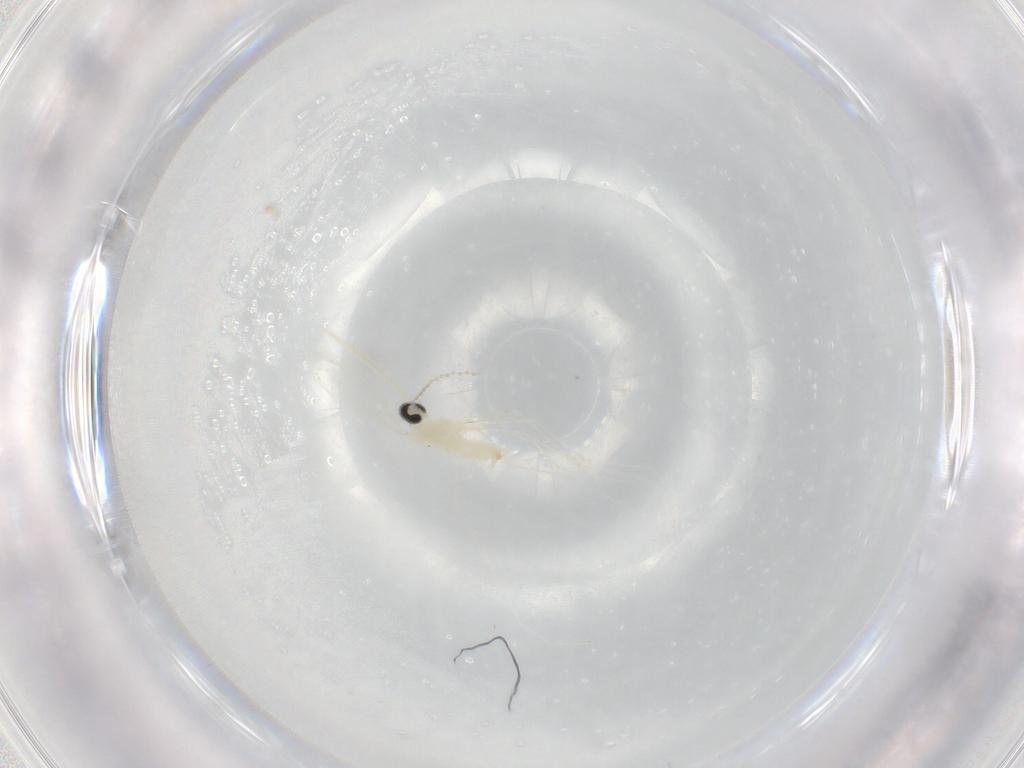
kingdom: Animalia
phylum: Arthropoda
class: Insecta
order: Diptera
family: Cecidomyiidae
